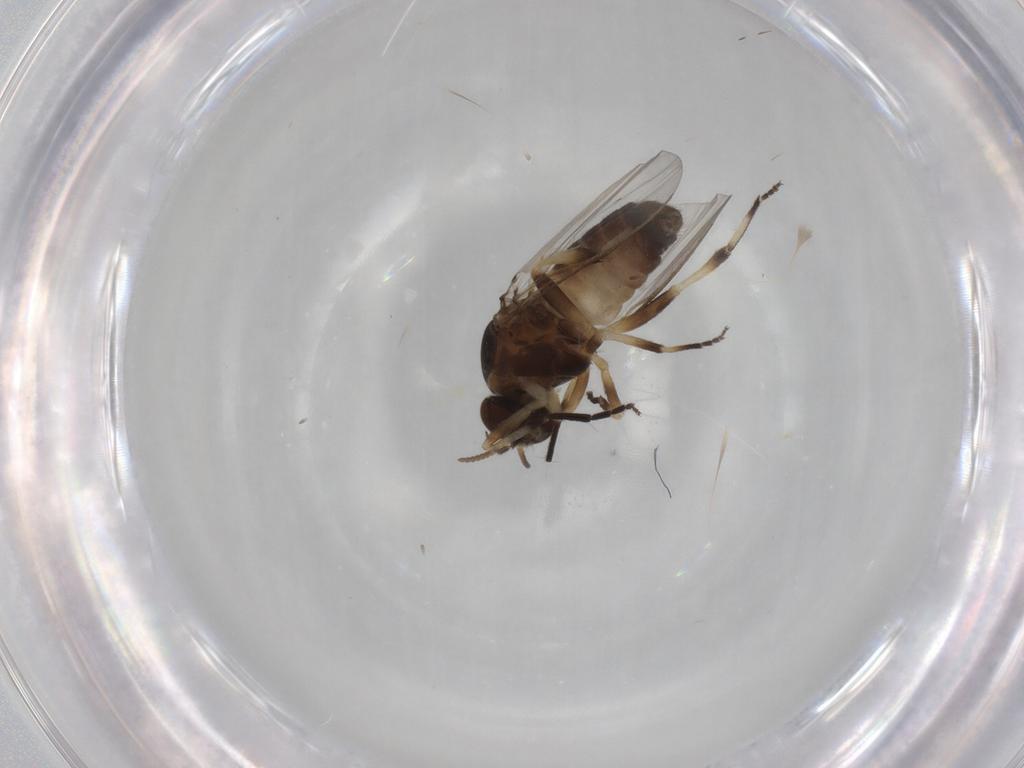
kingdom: Animalia
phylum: Arthropoda
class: Insecta
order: Diptera
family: Simuliidae
